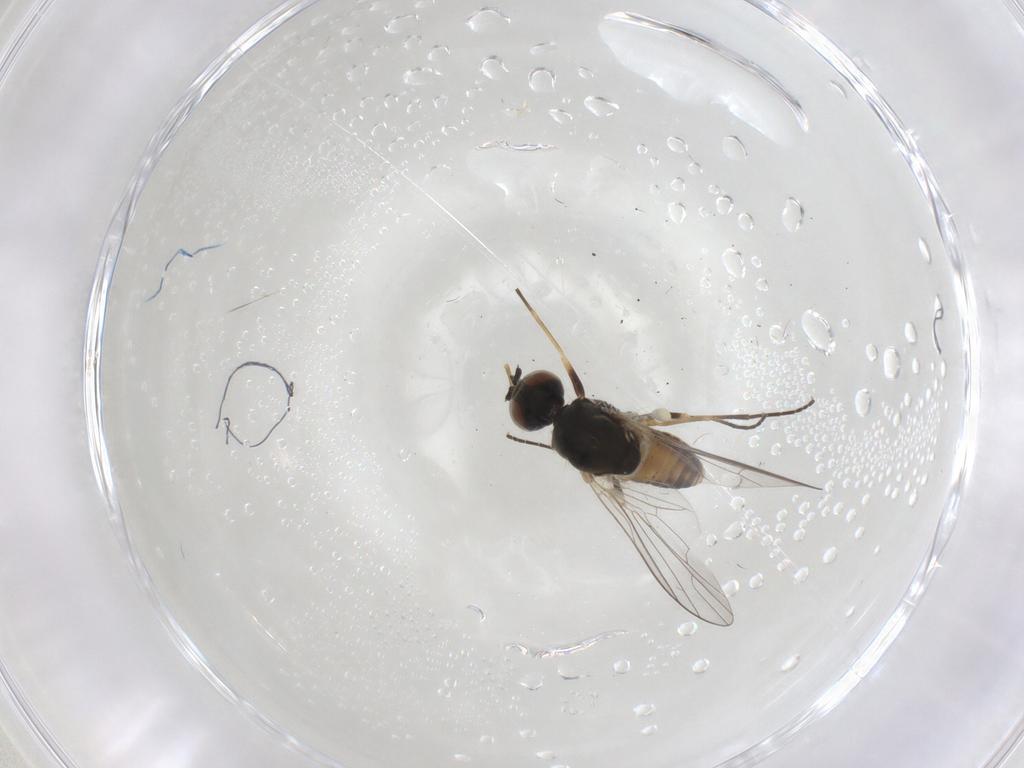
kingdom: Animalia
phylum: Arthropoda
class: Insecta
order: Diptera
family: Bombyliidae
